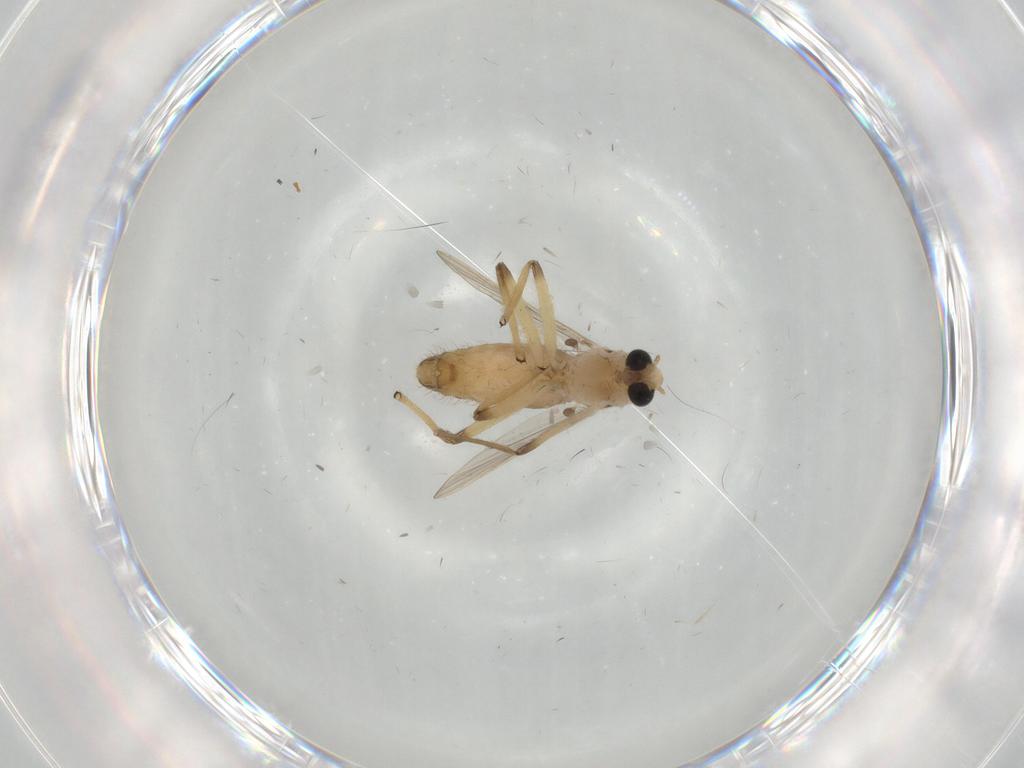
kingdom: Animalia
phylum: Arthropoda
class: Insecta
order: Diptera
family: Chironomidae
